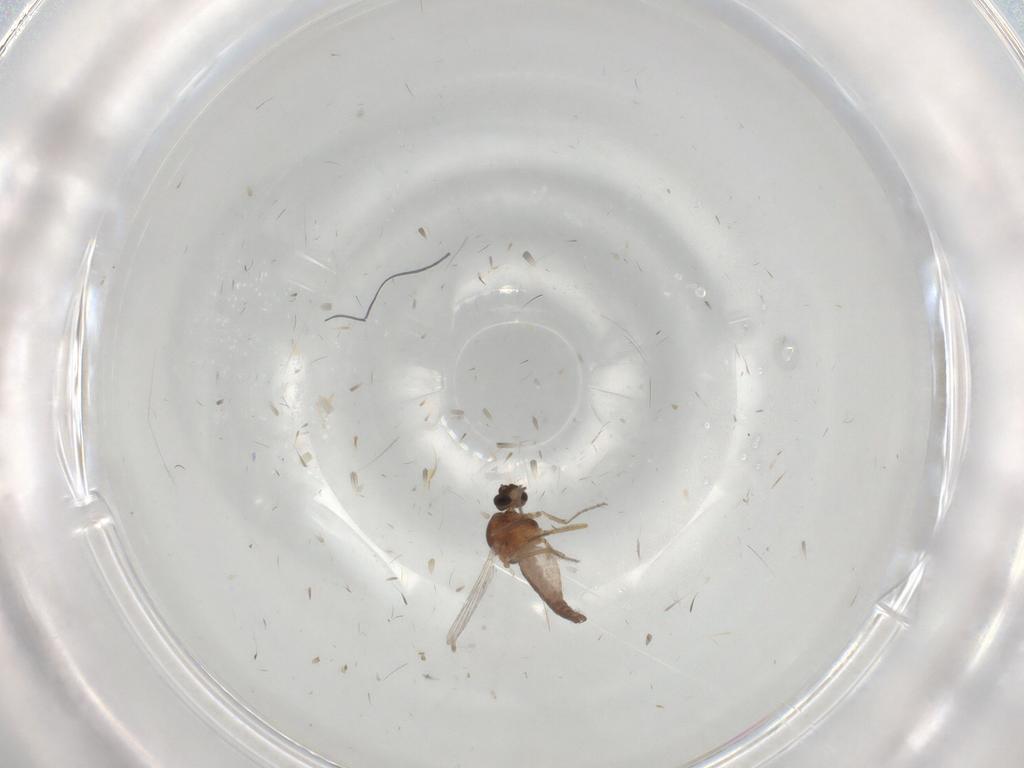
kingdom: Animalia
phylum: Arthropoda
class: Insecta
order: Diptera
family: Ceratopogonidae
